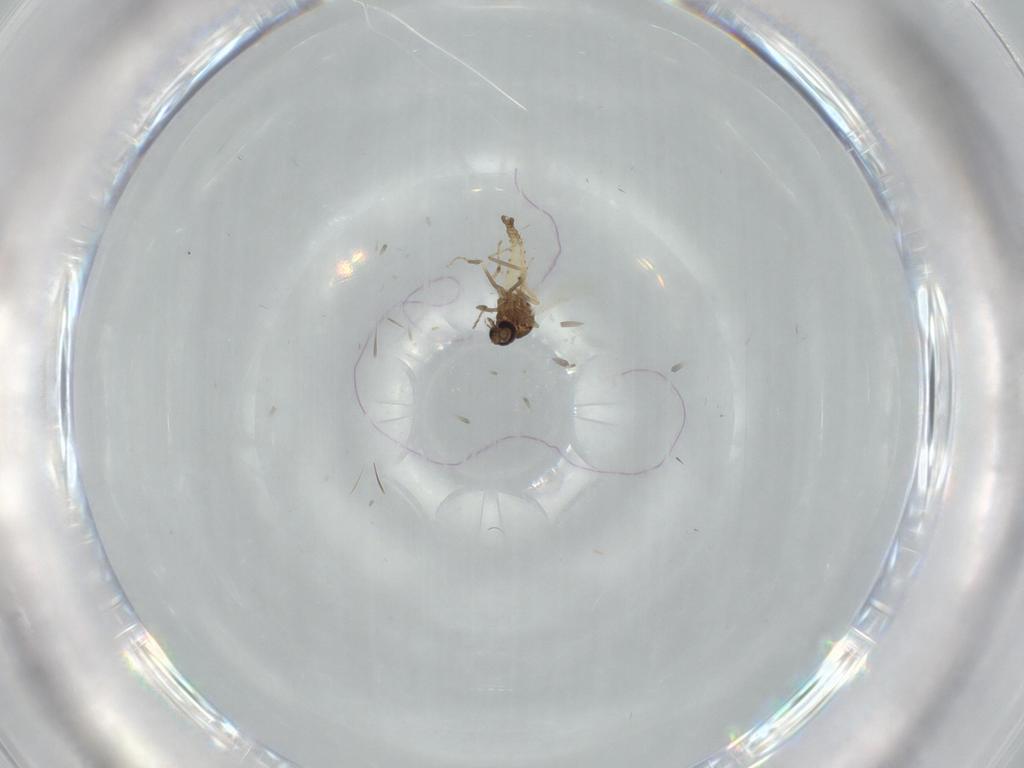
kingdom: Animalia
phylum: Arthropoda
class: Insecta
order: Diptera
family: Ceratopogonidae
